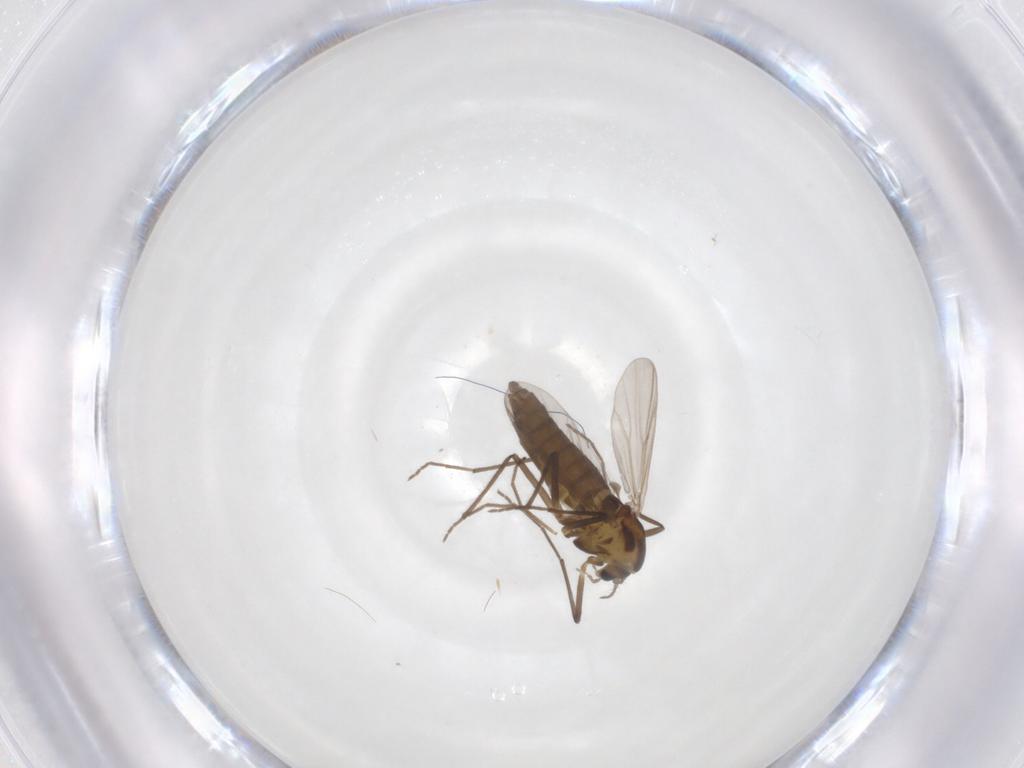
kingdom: Animalia
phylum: Arthropoda
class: Insecta
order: Diptera
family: Chironomidae
